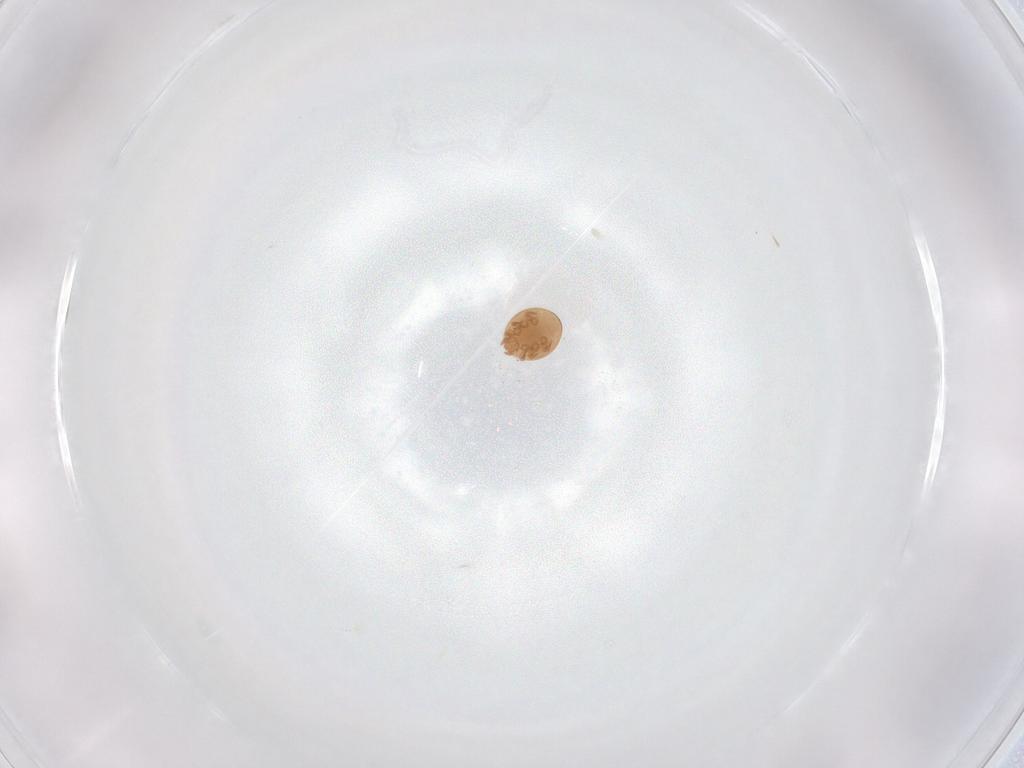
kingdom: Animalia
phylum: Arthropoda
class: Arachnida
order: Mesostigmata
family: Trematuridae
